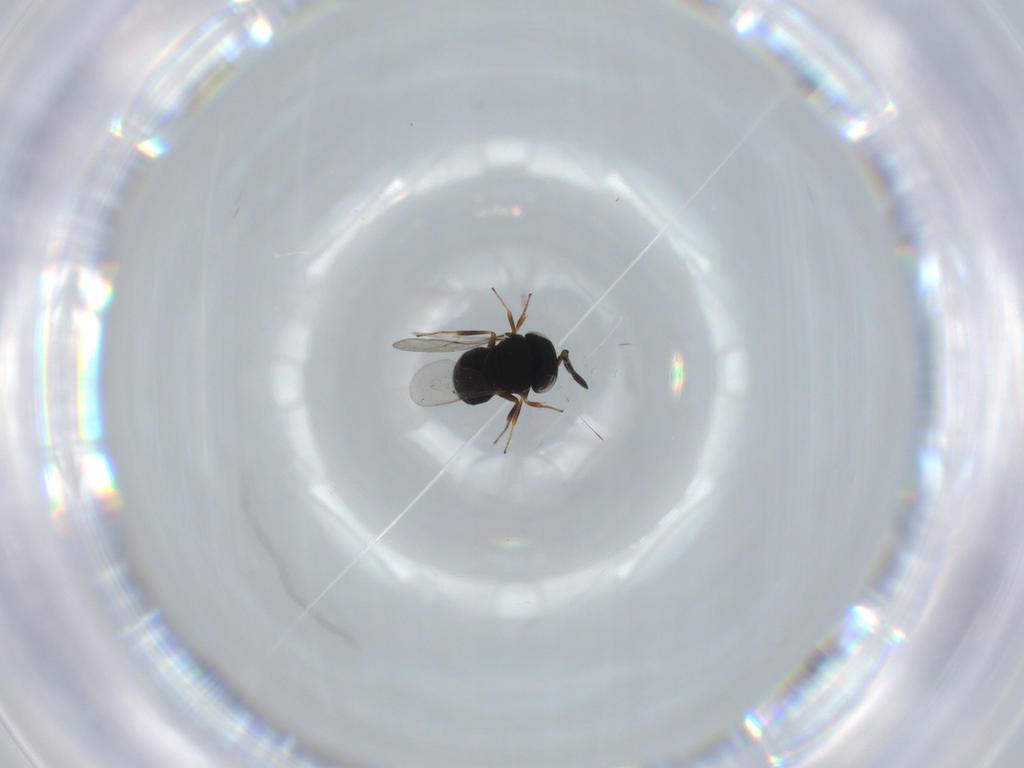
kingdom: Animalia
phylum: Arthropoda
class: Insecta
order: Hymenoptera
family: Scelionidae
